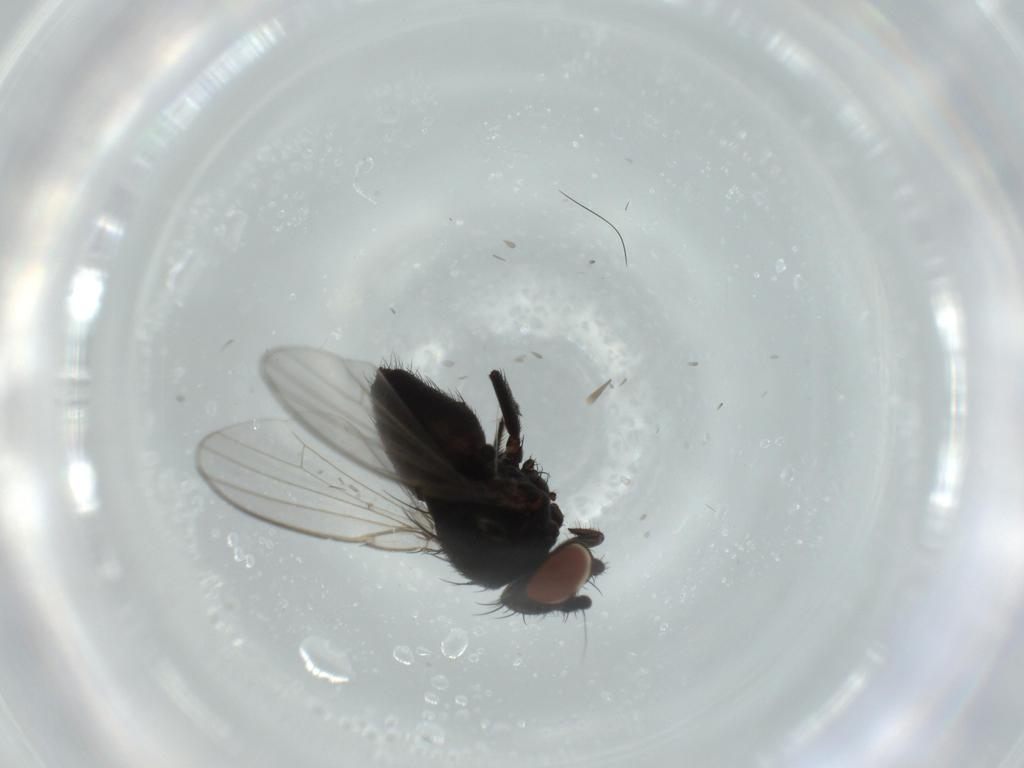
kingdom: Animalia
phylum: Arthropoda
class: Insecta
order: Diptera
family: Milichiidae
